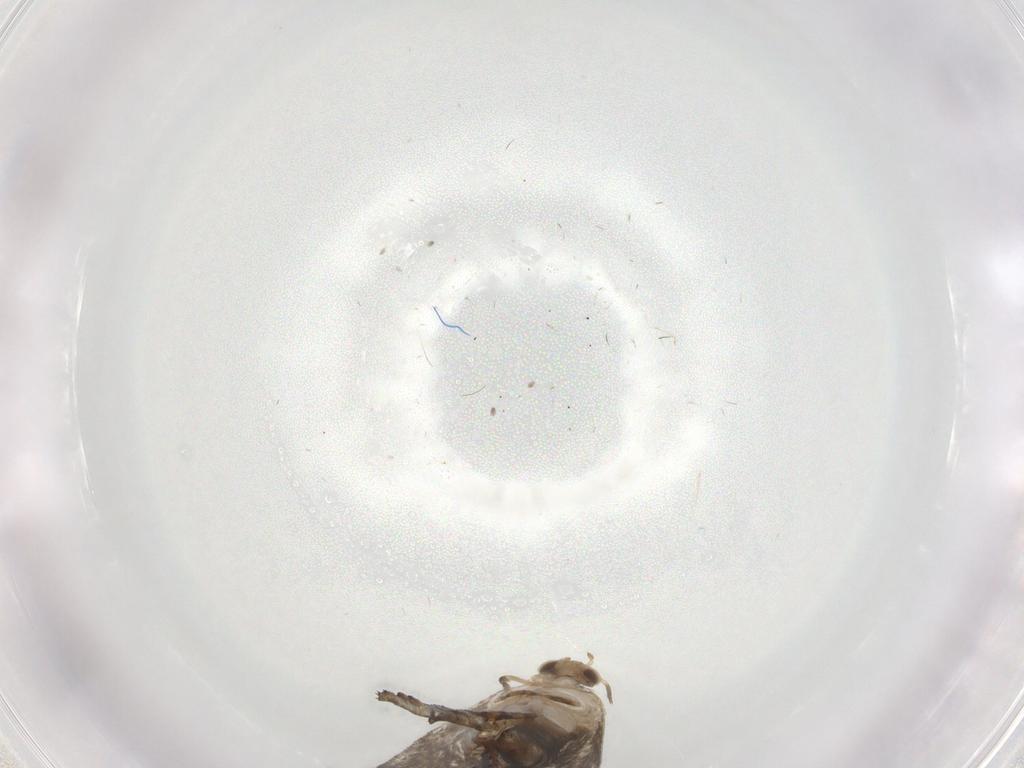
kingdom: Animalia
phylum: Arthropoda
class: Insecta
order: Lepidoptera
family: Tineidae
